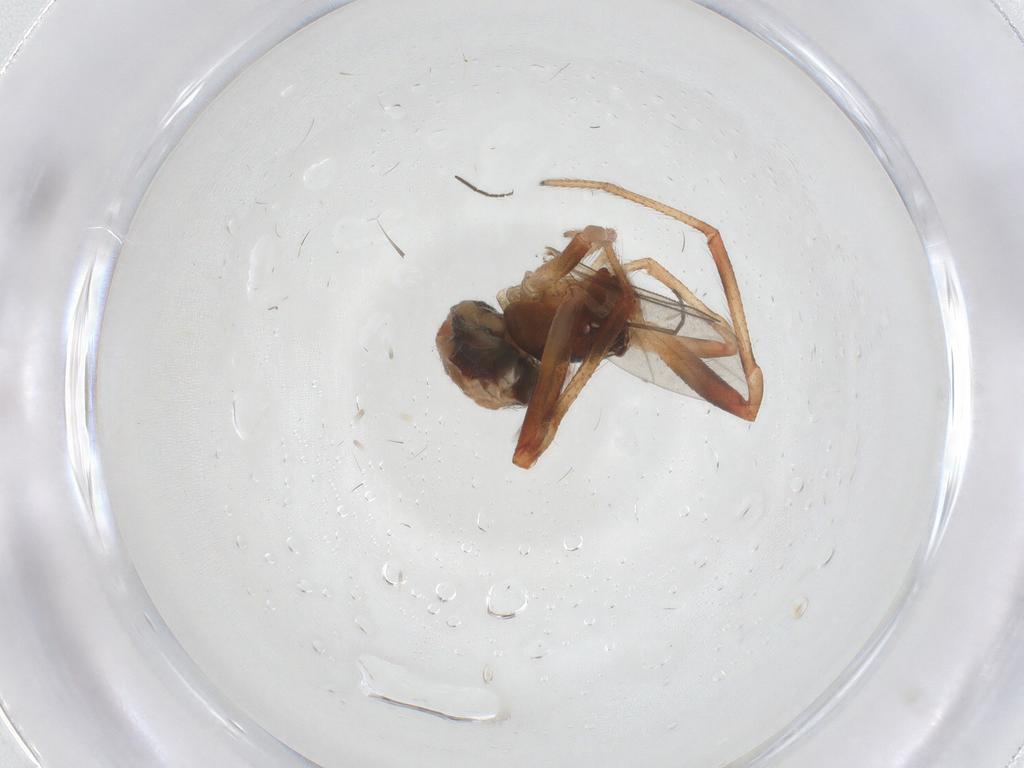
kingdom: Animalia
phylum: Arthropoda
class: Arachnida
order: Araneae
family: Theridiidae
